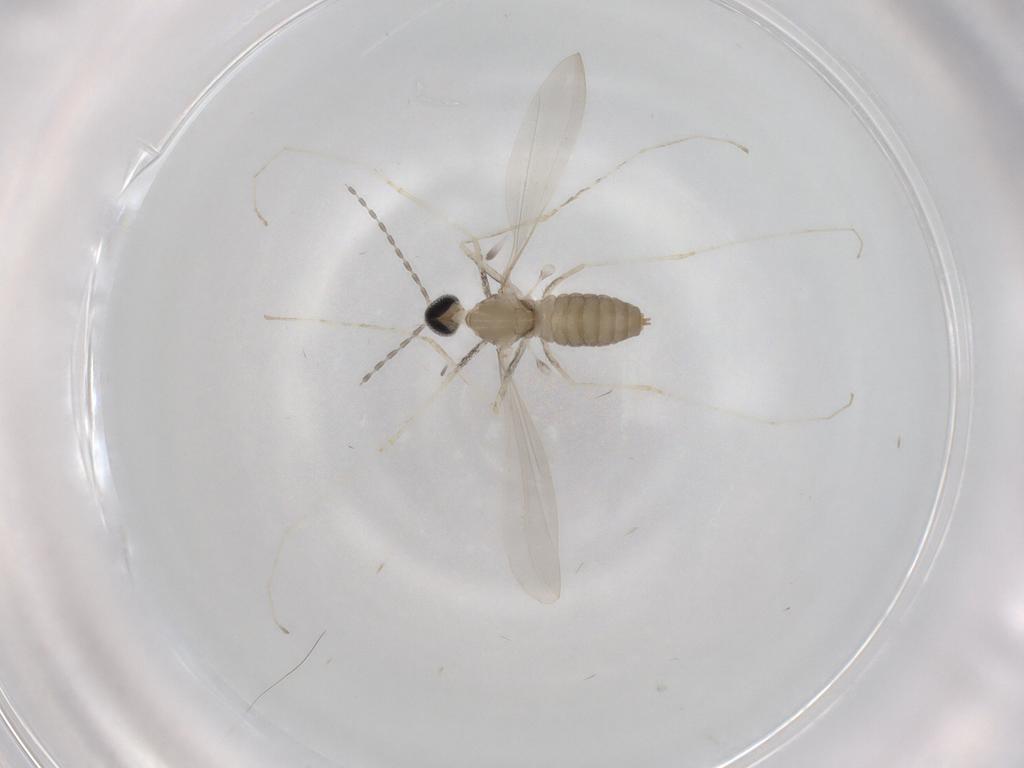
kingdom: Animalia
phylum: Arthropoda
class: Insecta
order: Diptera
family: Cecidomyiidae
